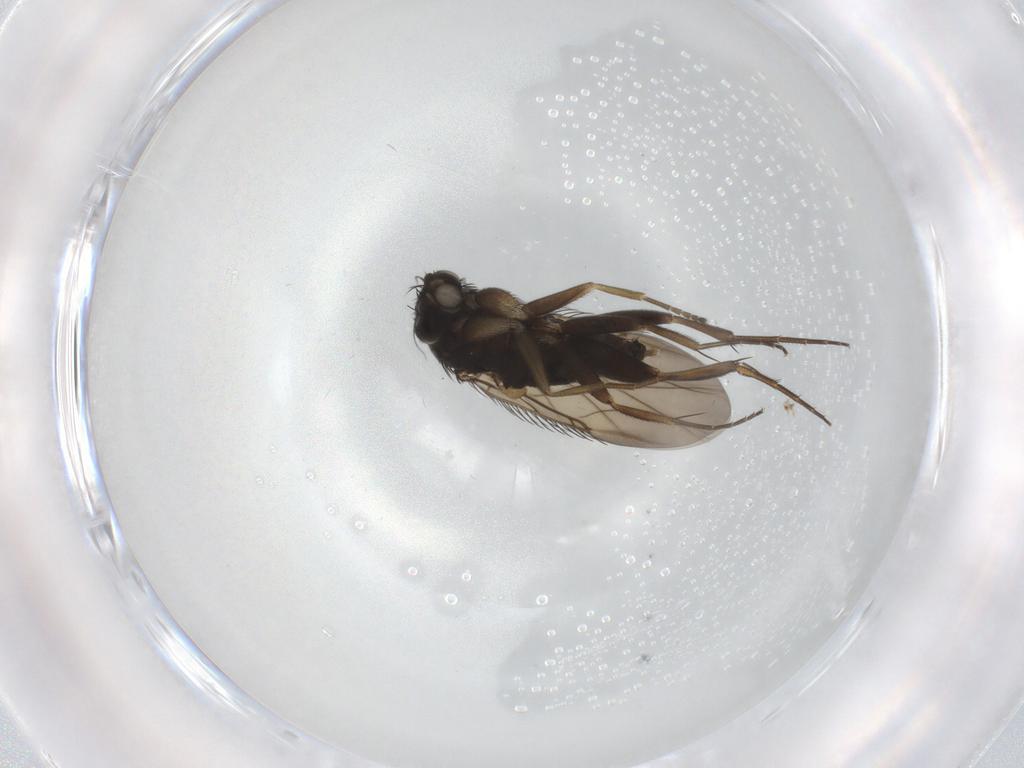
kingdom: Animalia
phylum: Arthropoda
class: Insecta
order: Diptera
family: Phoridae
